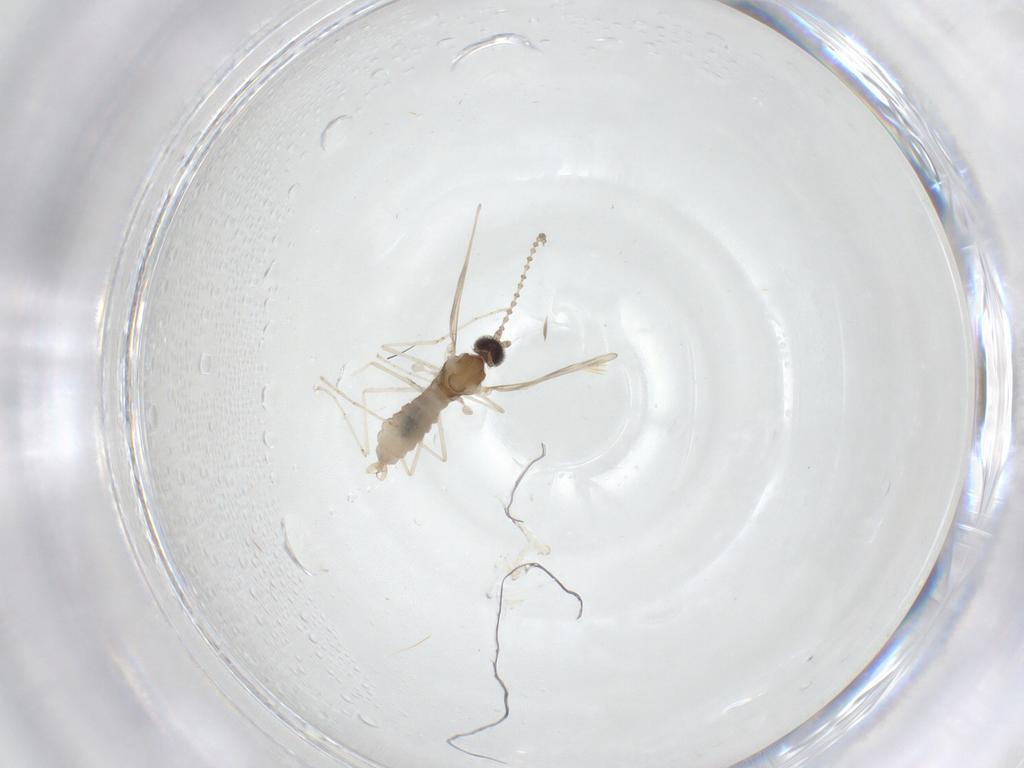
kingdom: Animalia
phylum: Arthropoda
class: Insecta
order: Diptera
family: Cecidomyiidae
